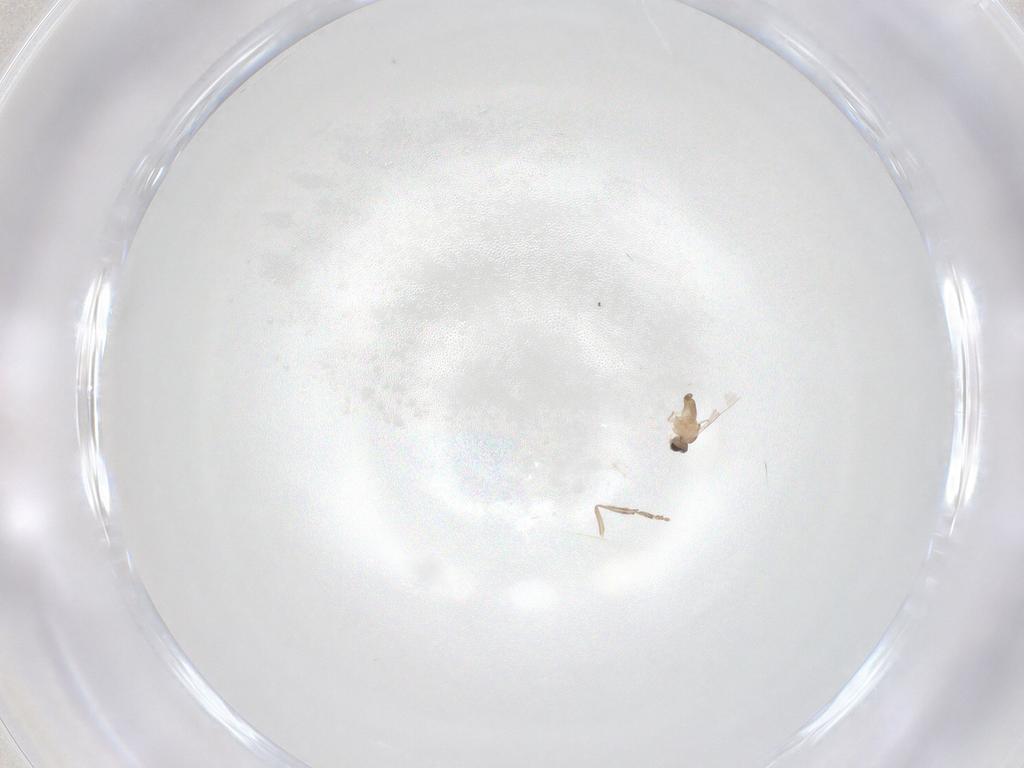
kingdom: Animalia
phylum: Arthropoda
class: Insecta
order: Diptera
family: Cecidomyiidae
